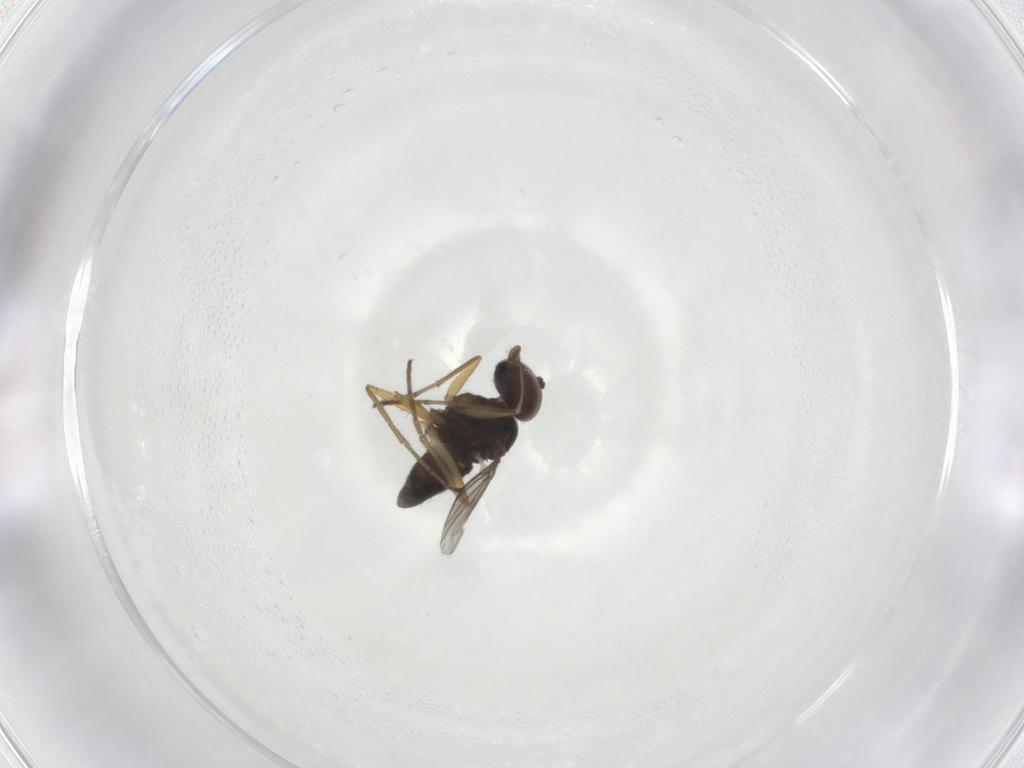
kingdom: Animalia
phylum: Arthropoda
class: Insecta
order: Diptera
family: Dolichopodidae
